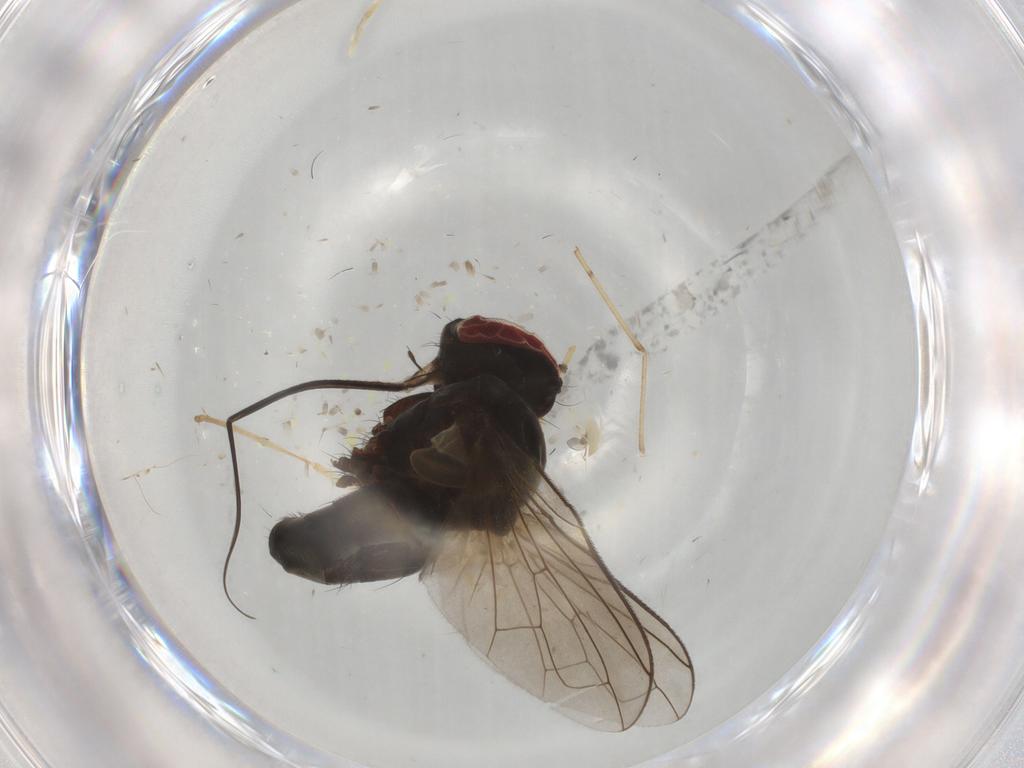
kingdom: Animalia
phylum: Arthropoda
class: Insecta
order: Diptera
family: Tachinidae
